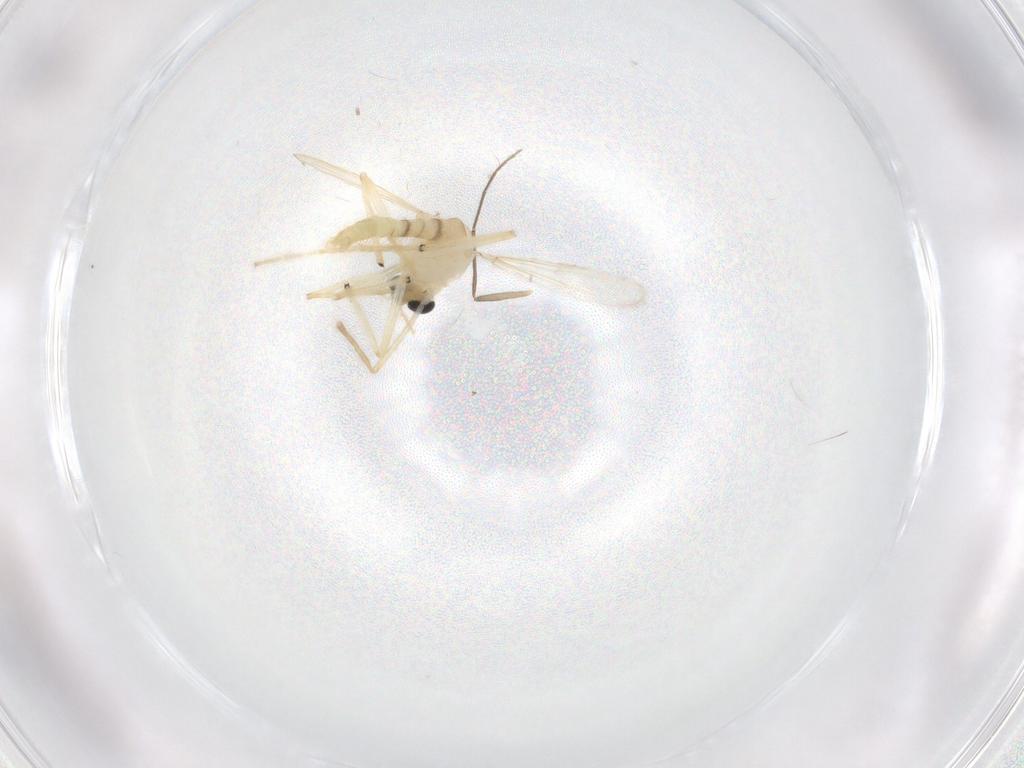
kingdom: Animalia
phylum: Arthropoda
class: Insecta
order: Diptera
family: Chironomidae
